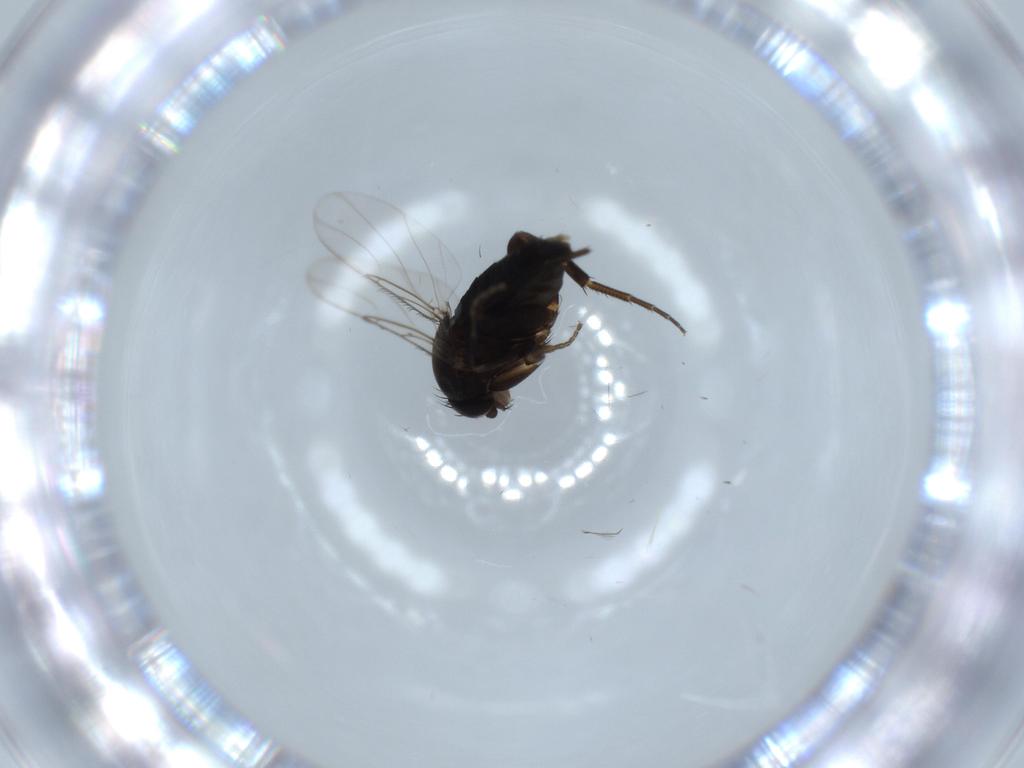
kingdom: Animalia
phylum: Arthropoda
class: Insecta
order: Diptera
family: Phoridae
